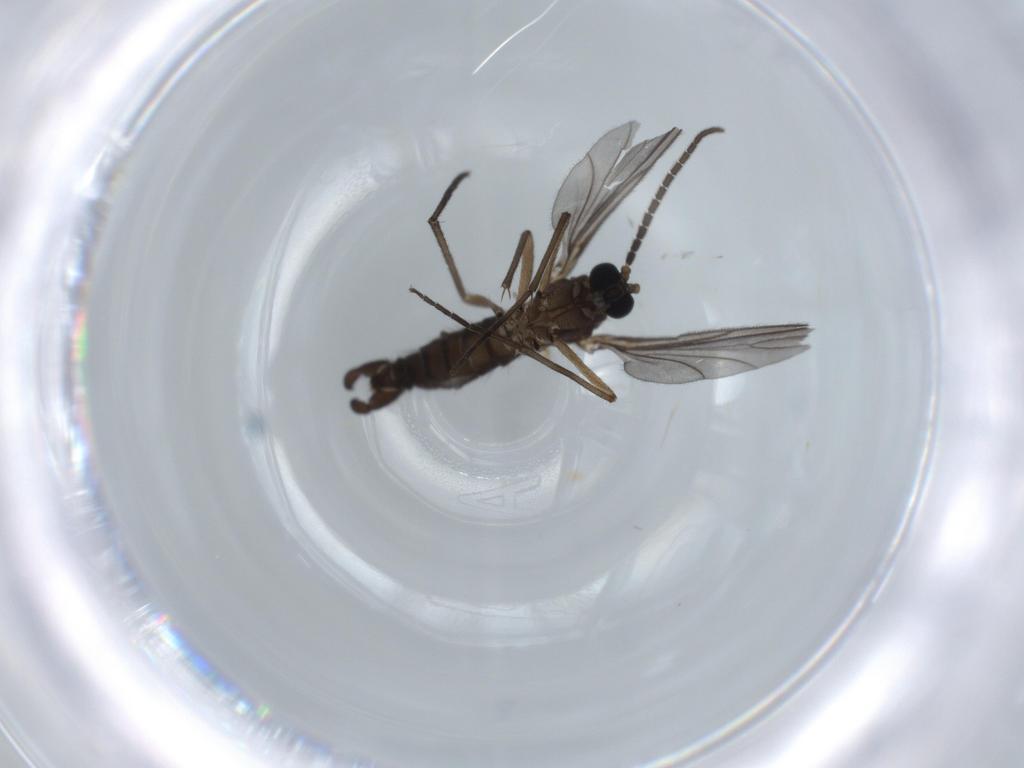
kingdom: Animalia
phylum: Arthropoda
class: Insecta
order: Diptera
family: Sciaridae
